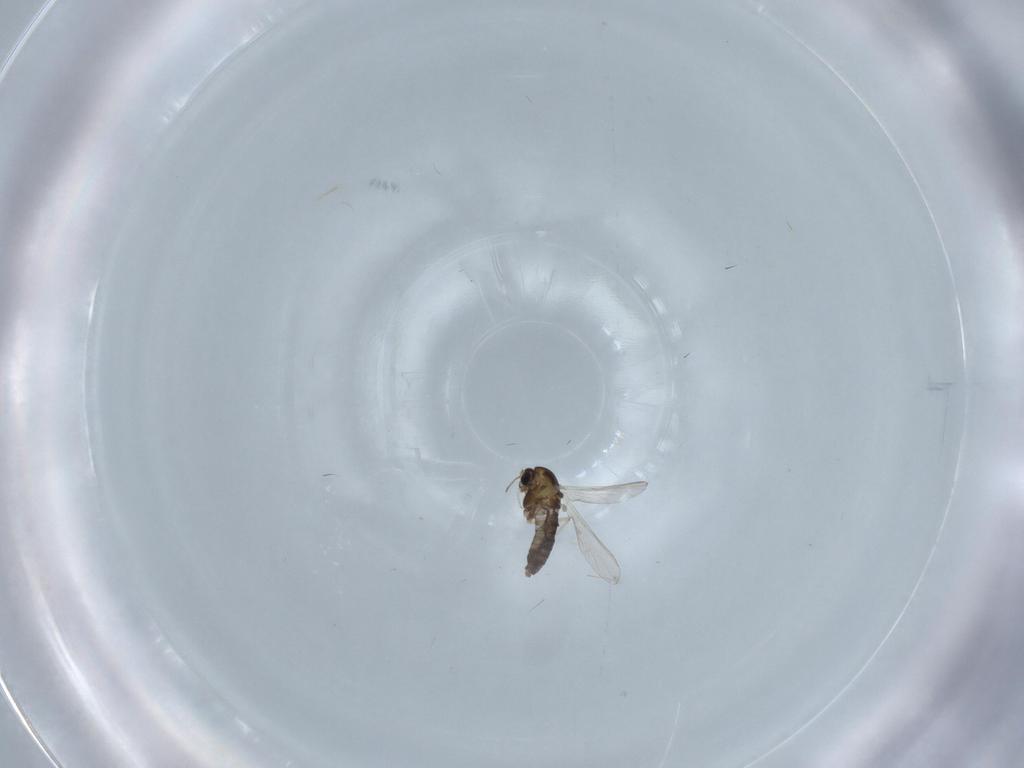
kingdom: Animalia
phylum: Arthropoda
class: Insecta
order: Diptera
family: Chironomidae
